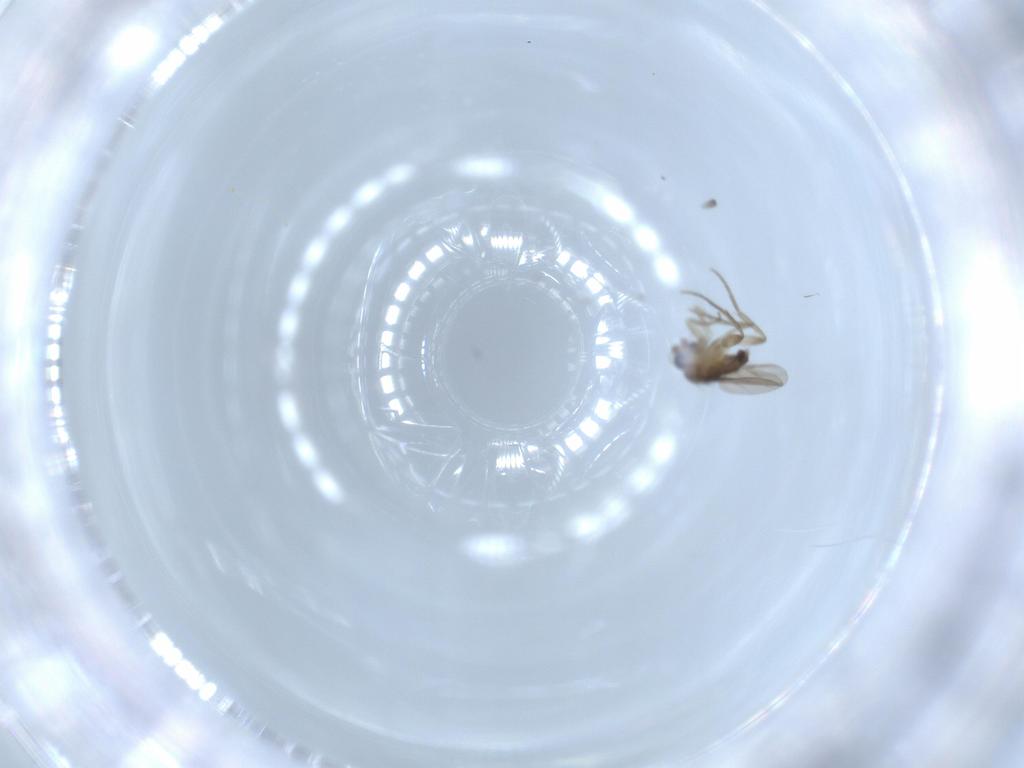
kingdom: Animalia
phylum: Arthropoda
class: Insecta
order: Diptera
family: Phoridae
